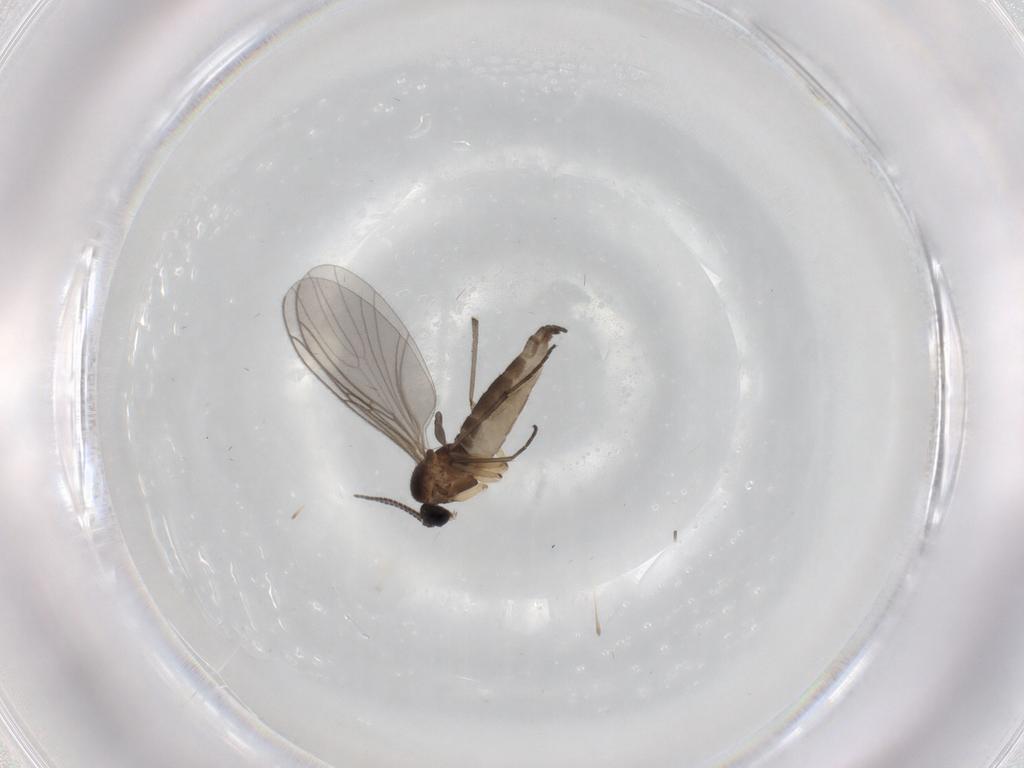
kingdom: Animalia
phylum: Arthropoda
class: Insecta
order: Diptera
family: Sciaridae
